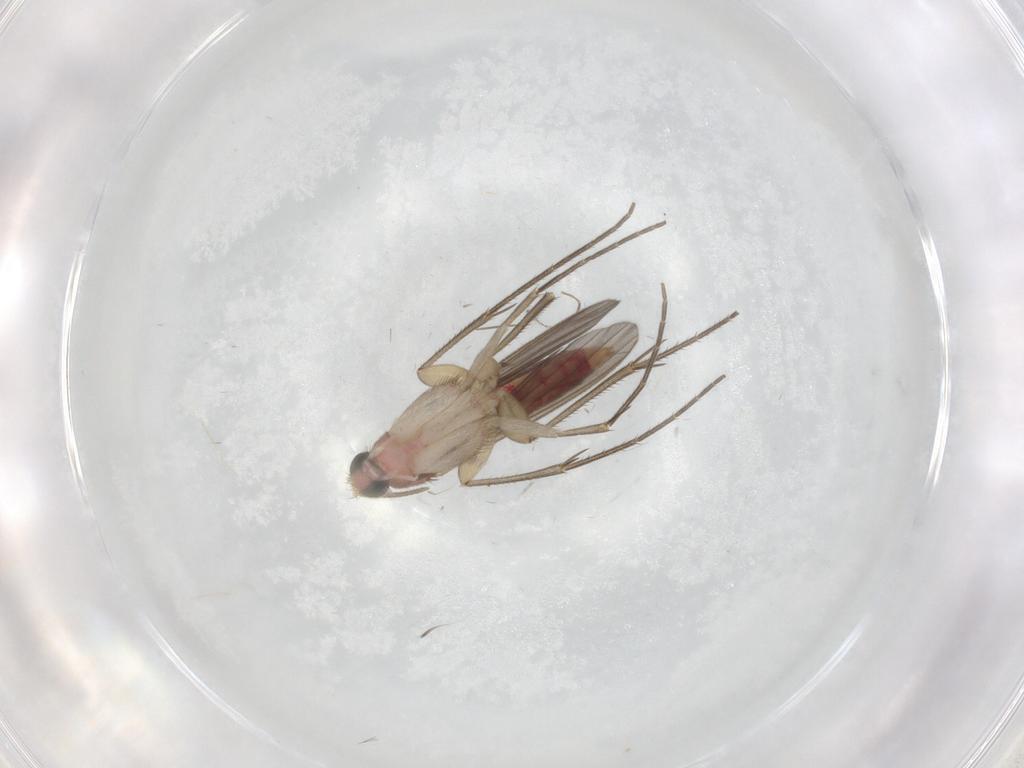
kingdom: Animalia
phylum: Arthropoda
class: Insecta
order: Diptera
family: Mycetophilidae
